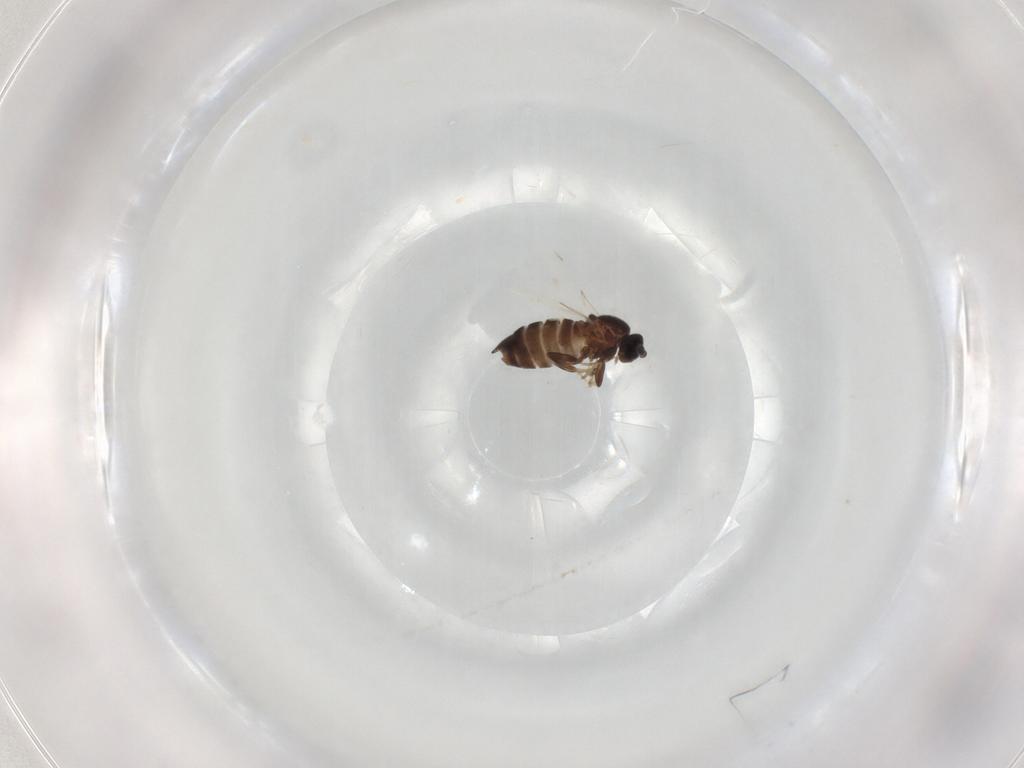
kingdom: Animalia
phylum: Arthropoda
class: Insecta
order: Diptera
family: Scatopsidae
